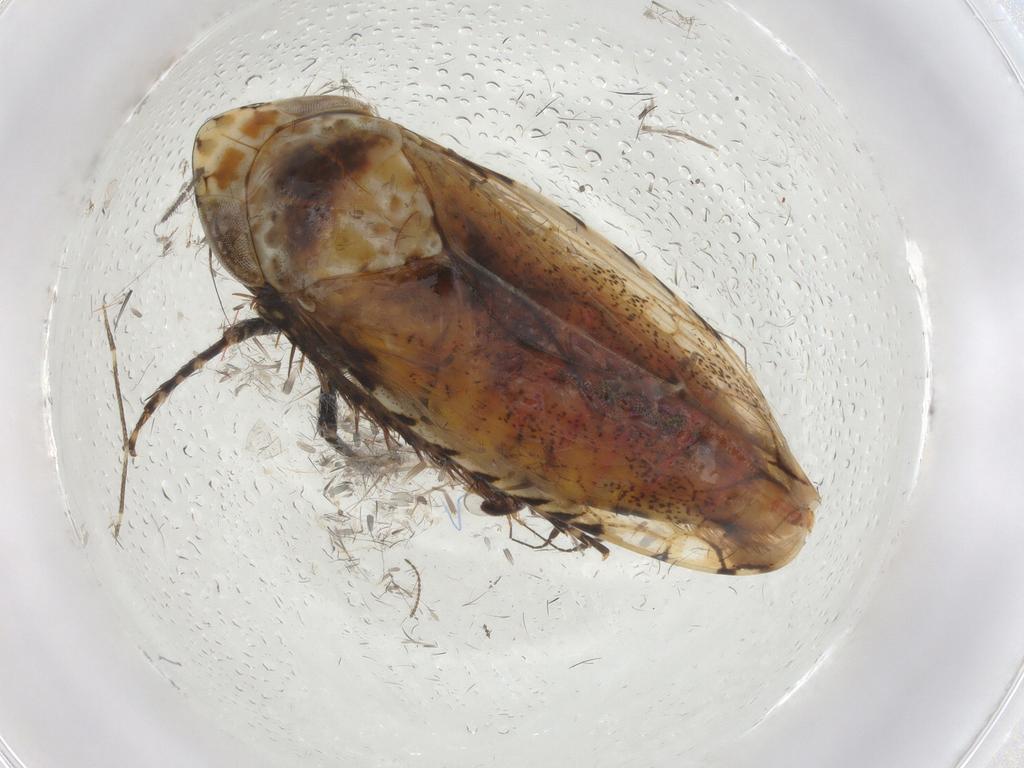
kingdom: Animalia
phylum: Arthropoda
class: Insecta
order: Hemiptera
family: Cicadellidae
